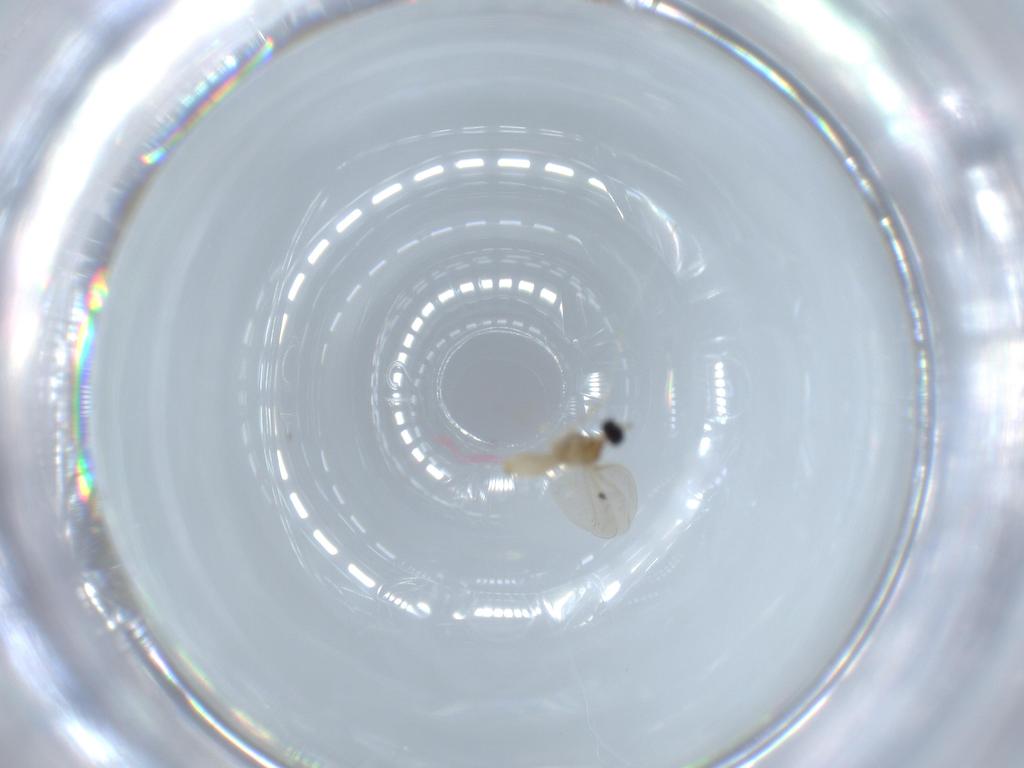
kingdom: Animalia
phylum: Arthropoda
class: Insecta
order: Diptera
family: Cecidomyiidae
